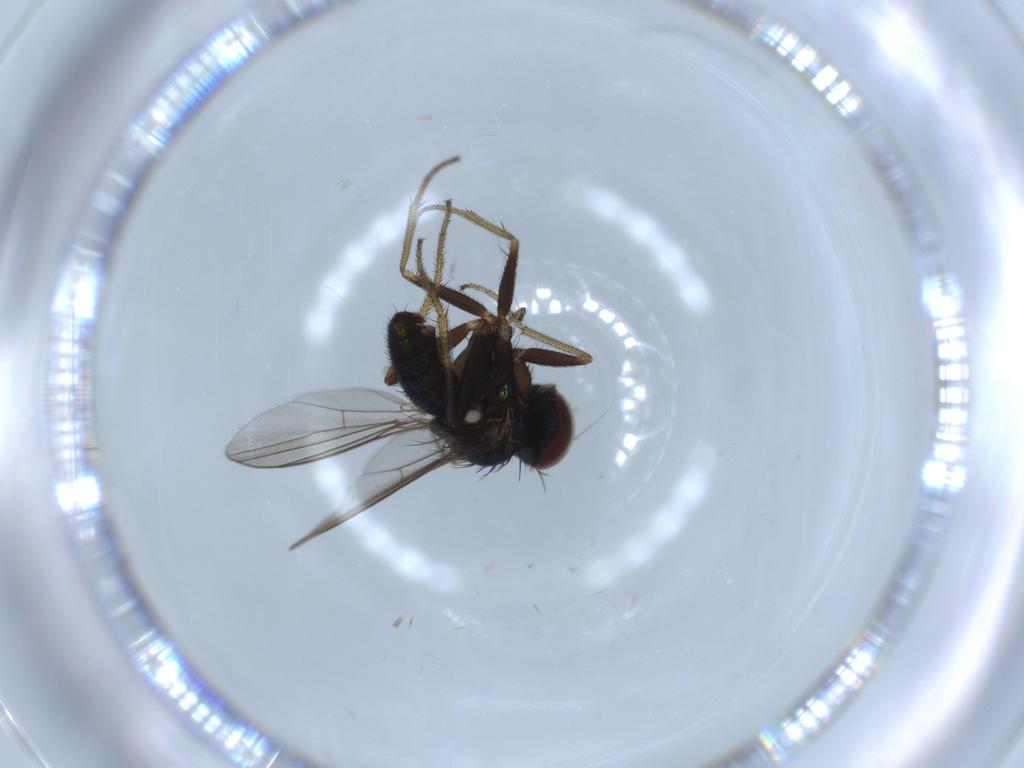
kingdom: Animalia
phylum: Arthropoda
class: Insecta
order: Diptera
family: Dolichopodidae
